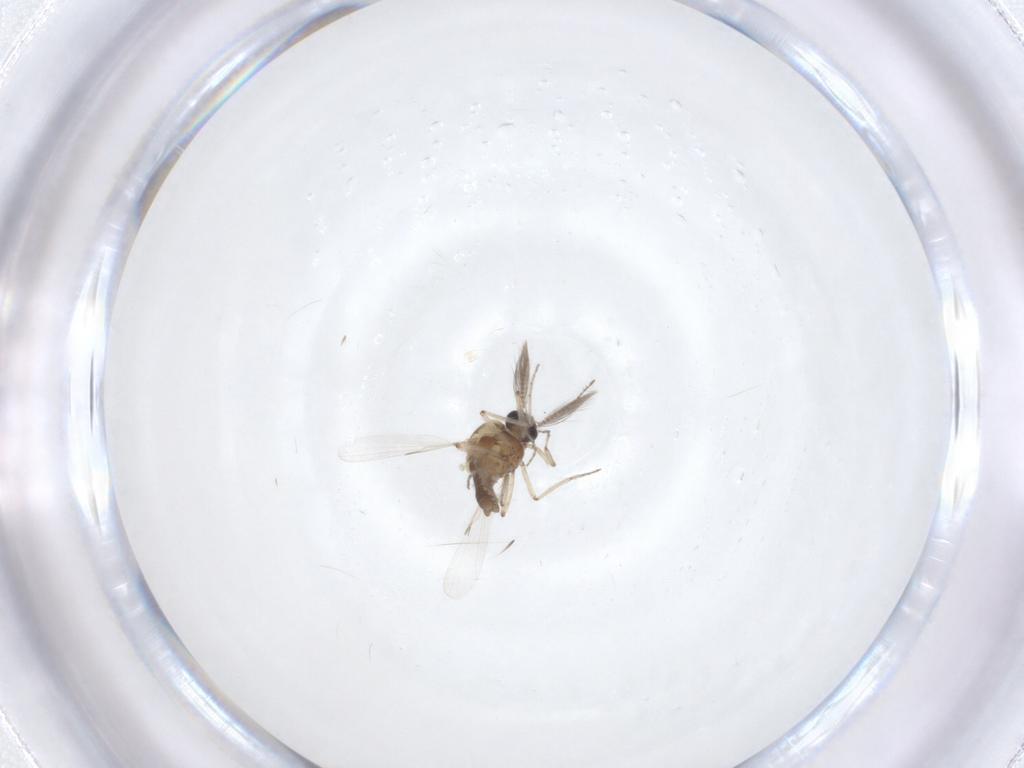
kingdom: Animalia
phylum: Arthropoda
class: Insecta
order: Diptera
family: Ceratopogonidae
